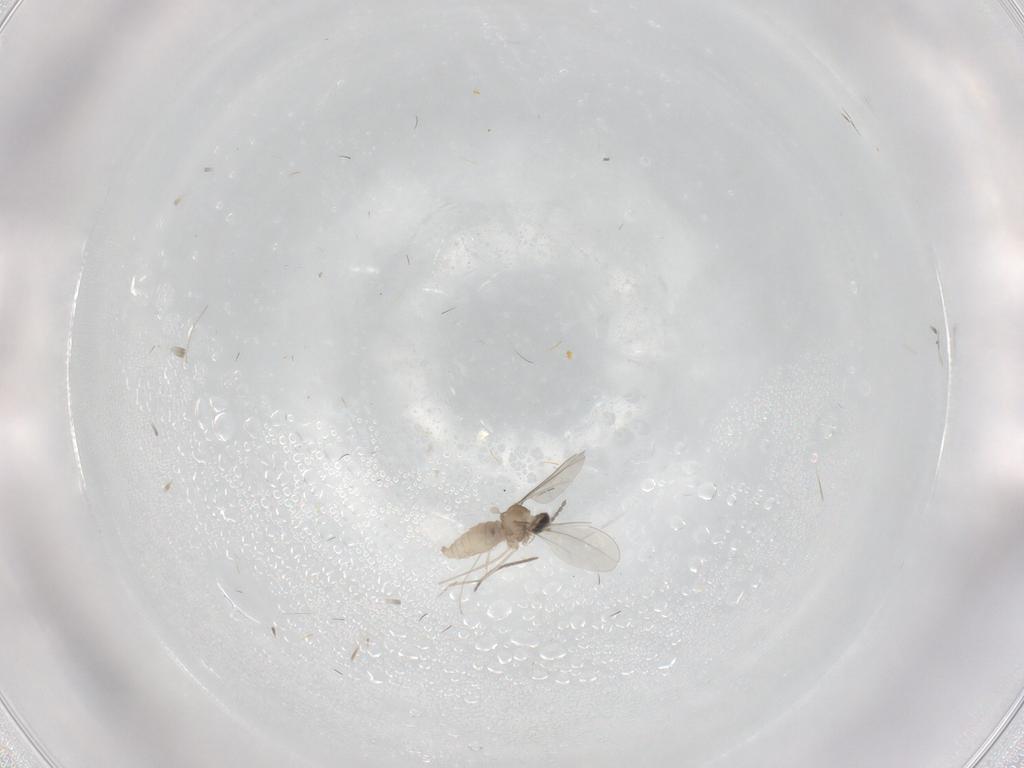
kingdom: Animalia
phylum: Arthropoda
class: Insecta
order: Diptera
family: Cecidomyiidae
